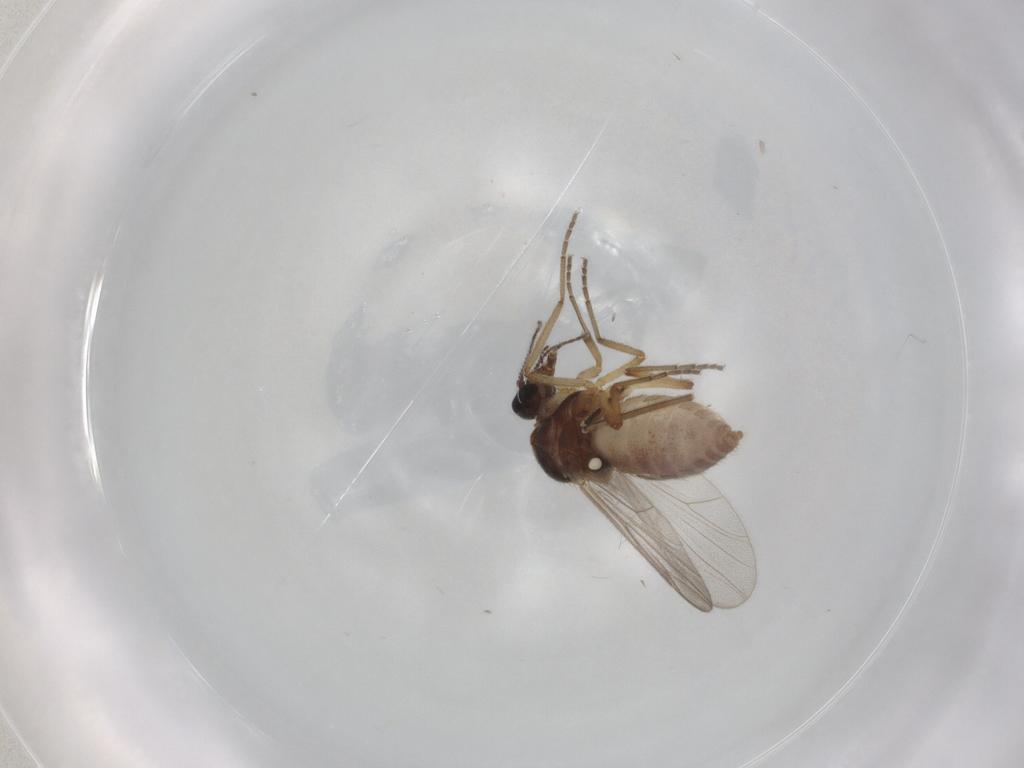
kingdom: Animalia
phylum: Arthropoda
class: Insecta
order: Diptera
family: Ceratopogonidae
